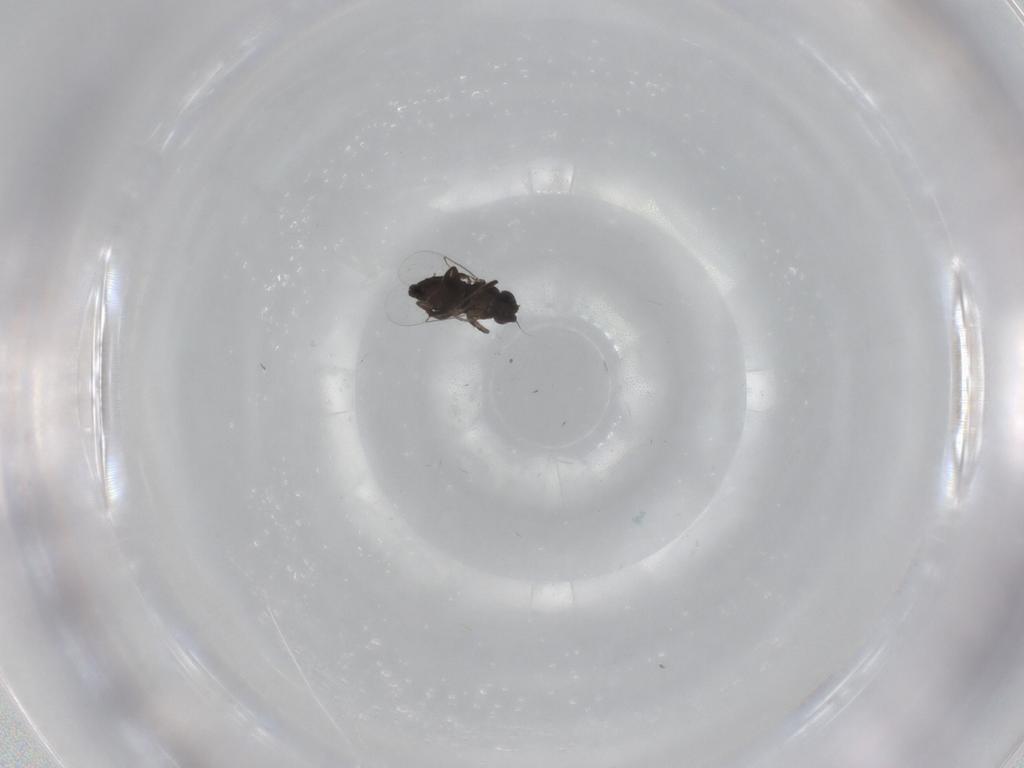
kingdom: Animalia
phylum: Arthropoda
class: Insecta
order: Diptera
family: Phoridae
